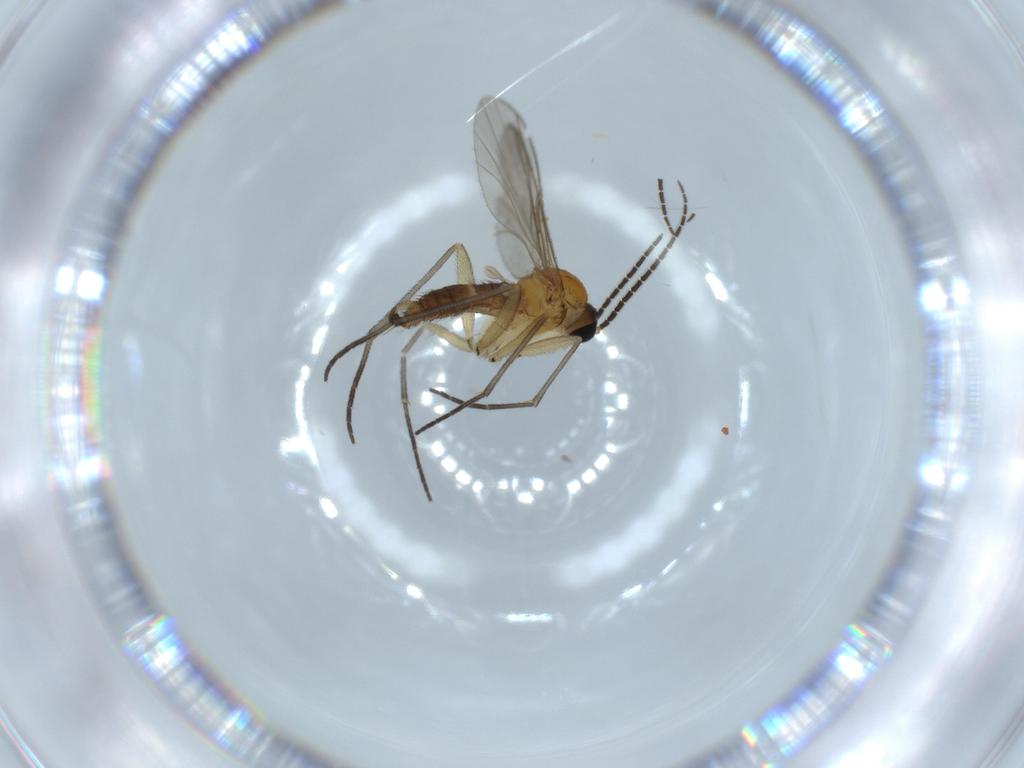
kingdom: Animalia
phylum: Arthropoda
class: Insecta
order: Diptera
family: Sciaridae
